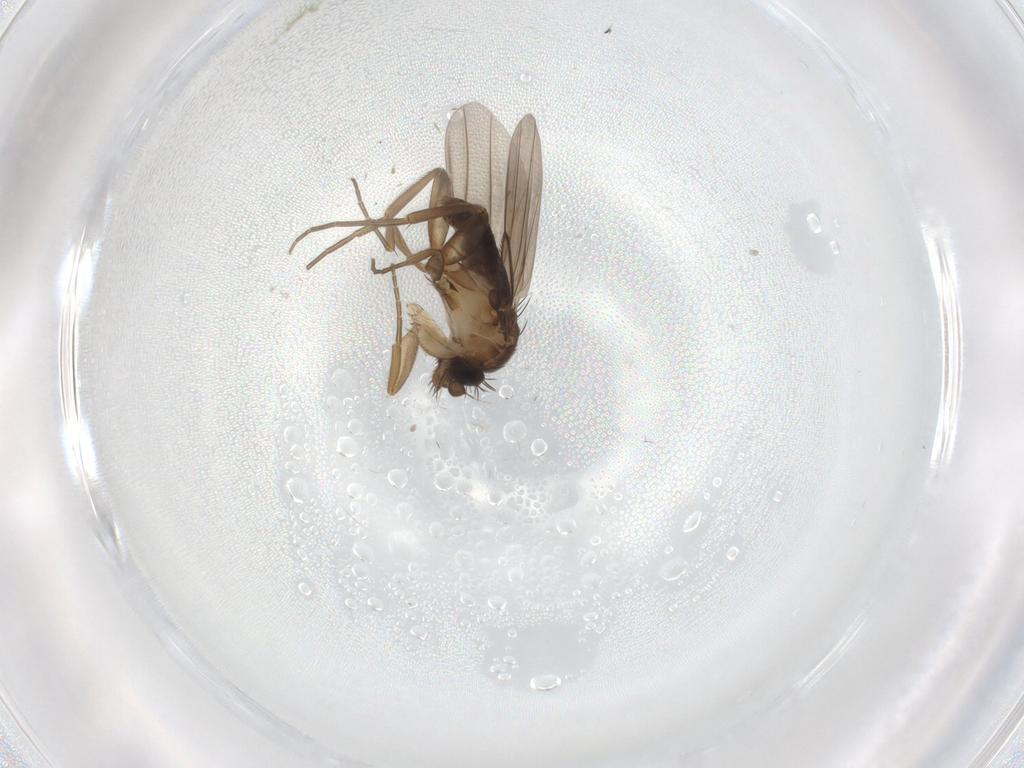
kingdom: Animalia
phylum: Arthropoda
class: Insecta
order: Diptera
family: Phoridae
